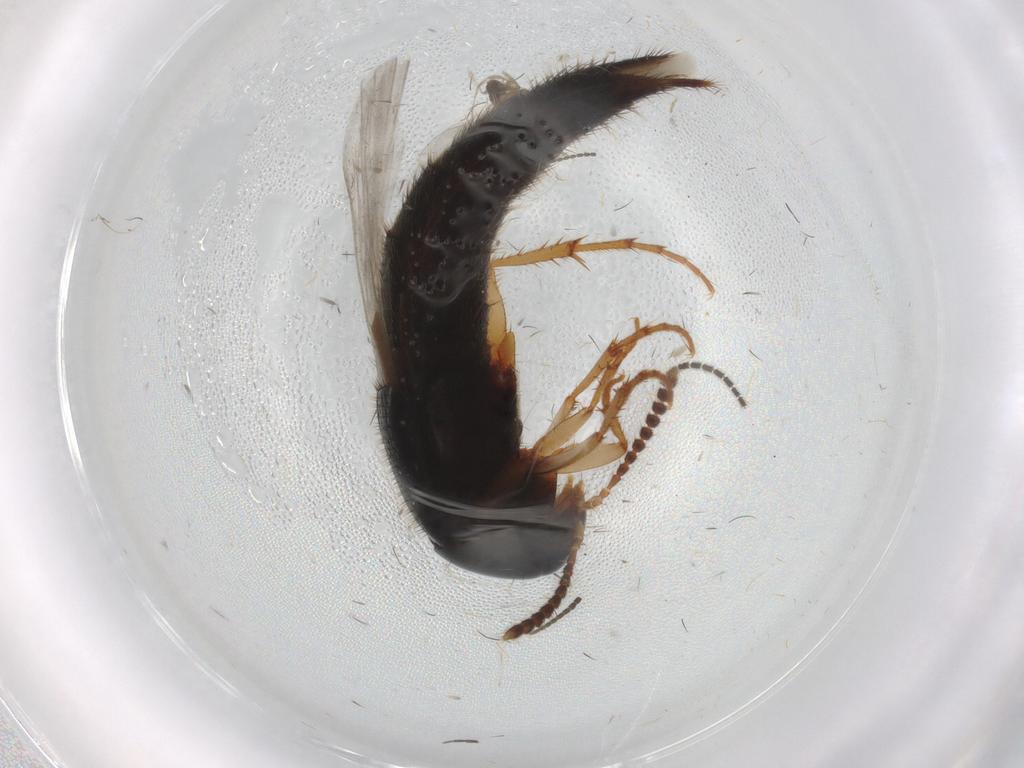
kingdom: Animalia
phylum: Arthropoda
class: Insecta
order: Coleoptera
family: Staphylinidae
